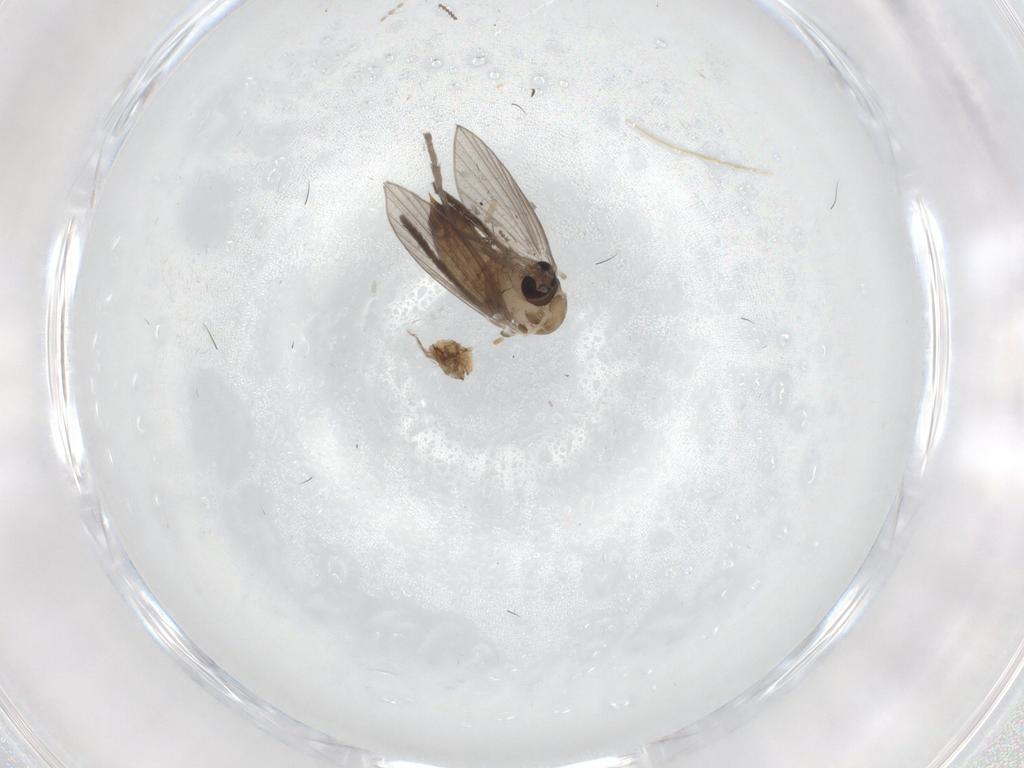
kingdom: Animalia
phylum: Arthropoda
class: Insecta
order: Diptera
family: Psychodidae
